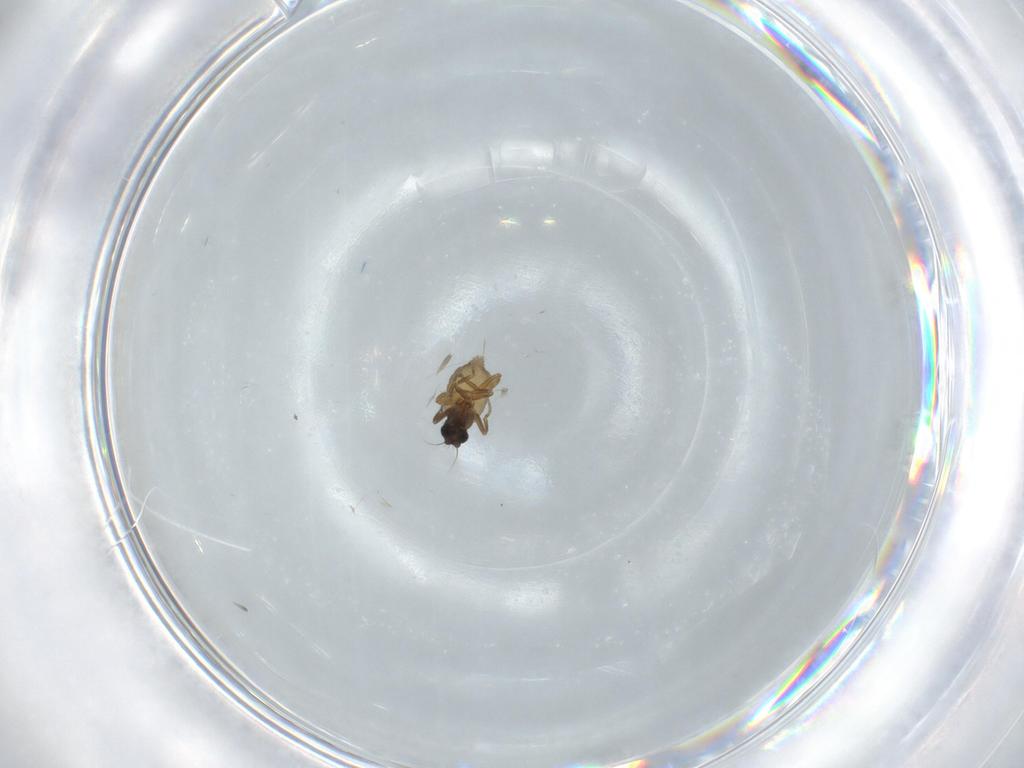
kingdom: Animalia
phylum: Arthropoda
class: Insecta
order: Diptera
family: Phoridae
